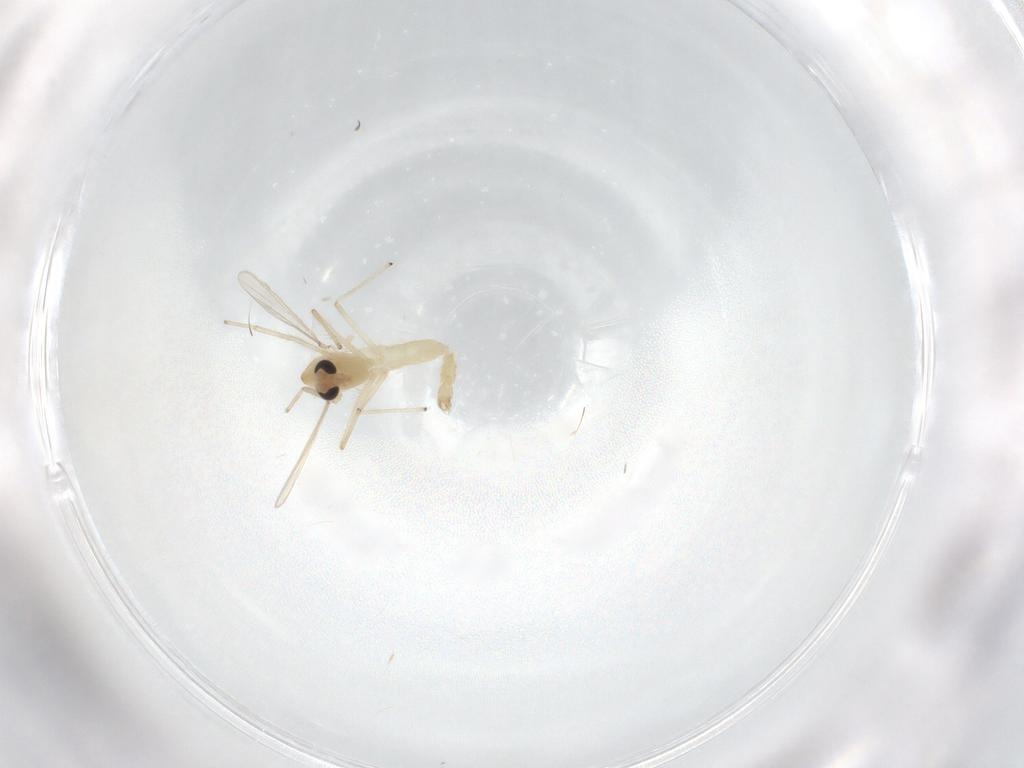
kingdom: Animalia
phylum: Arthropoda
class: Insecta
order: Diptera
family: Chironomidae
